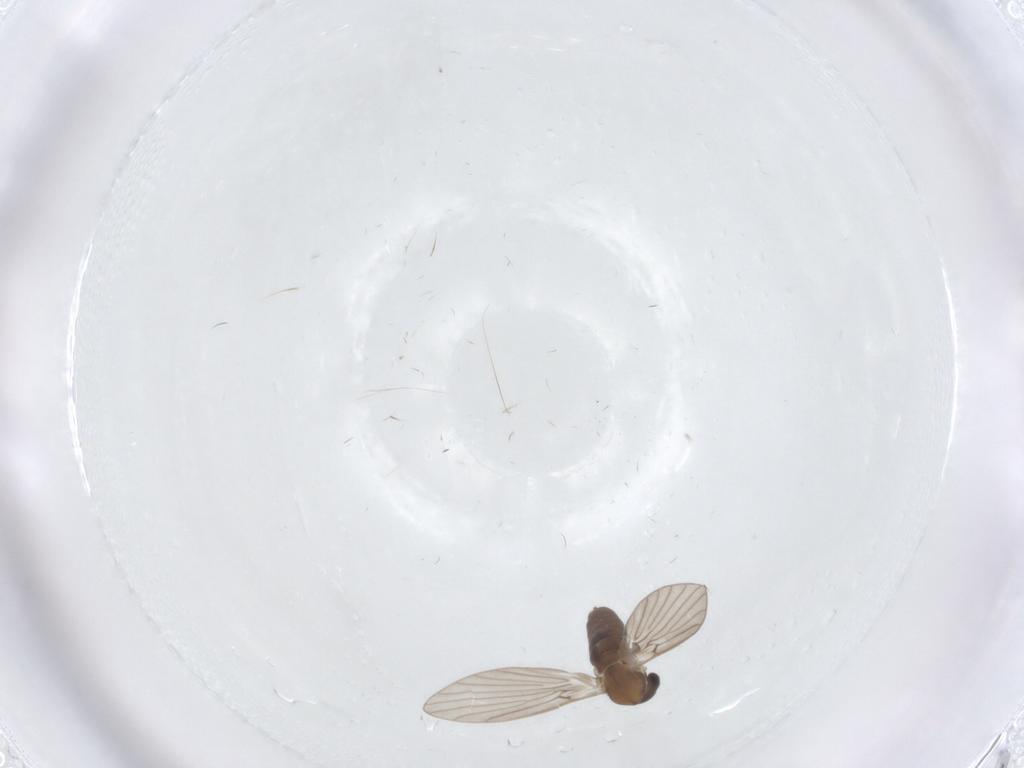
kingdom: Animalia
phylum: Arthropoda
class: Insecta
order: Diptera
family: Chironomidae
